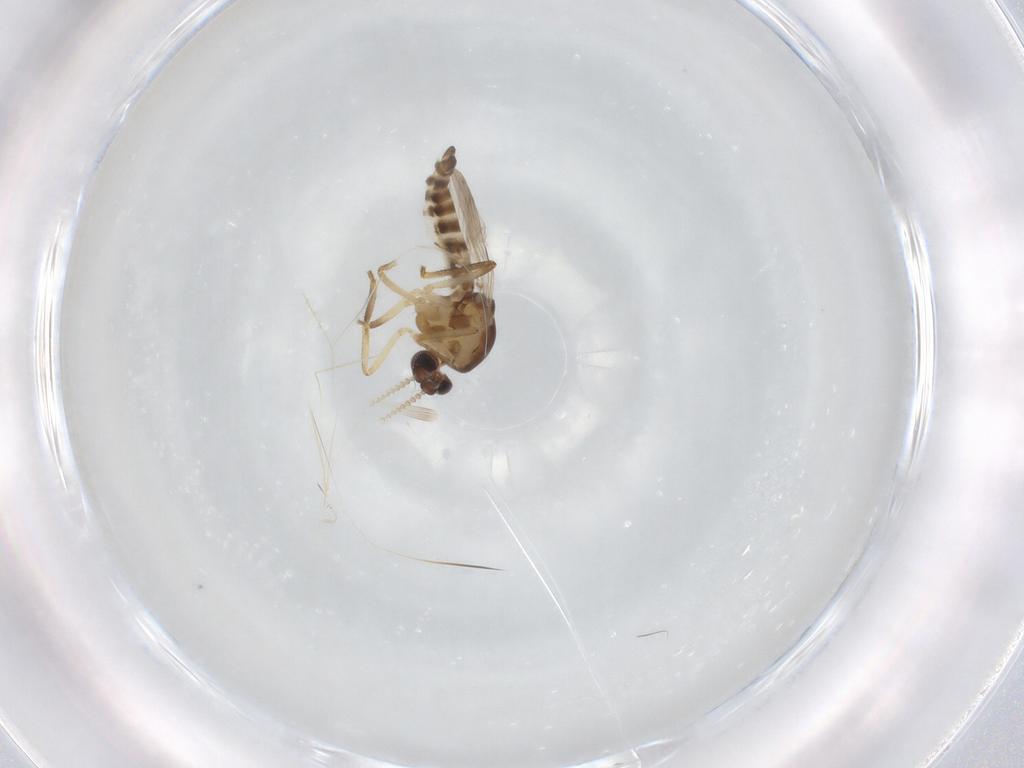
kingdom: Animalia
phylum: Arthropoda
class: Insecta
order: Diptera
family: Ceratopogonidae
